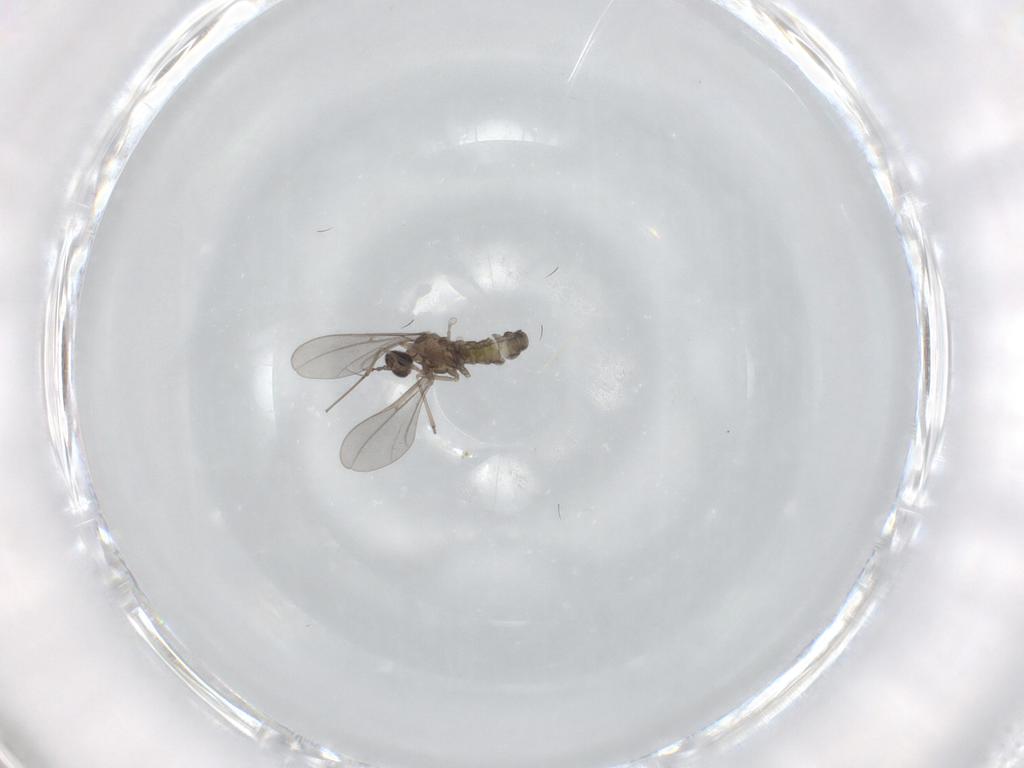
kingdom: Animalia
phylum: Arthropoda
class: Insecta
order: Diptera
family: Cecidomyiidae
